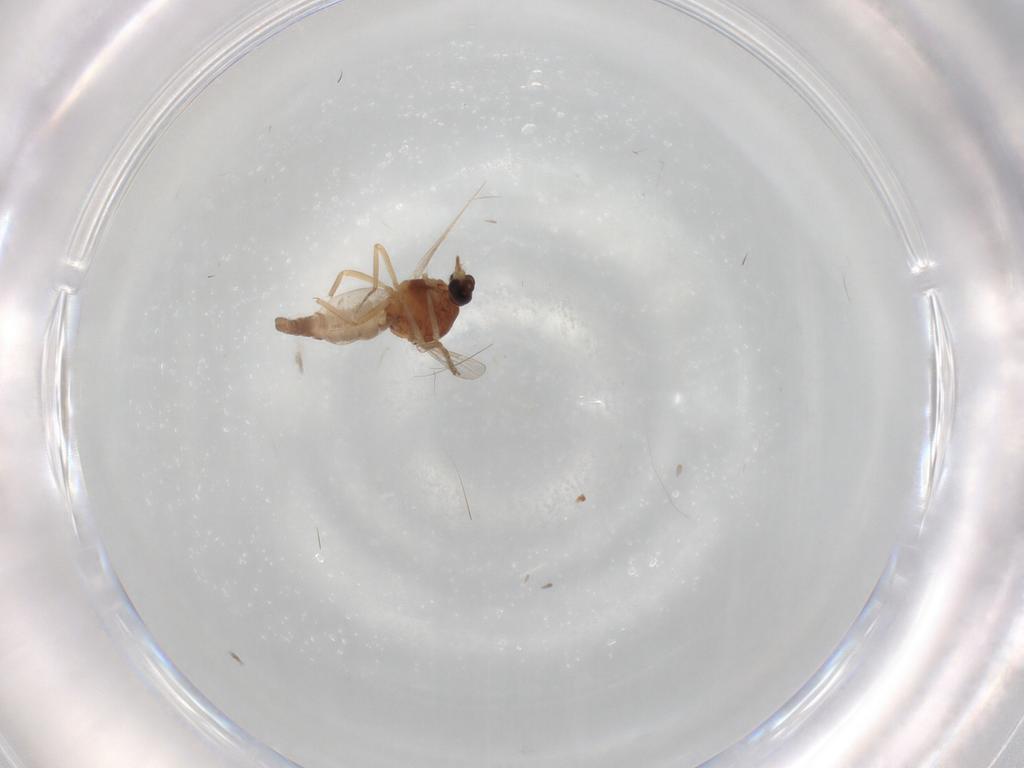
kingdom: Animalia
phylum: Arthropoda
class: Insecta
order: Diptera
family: Ceratopogonidae
